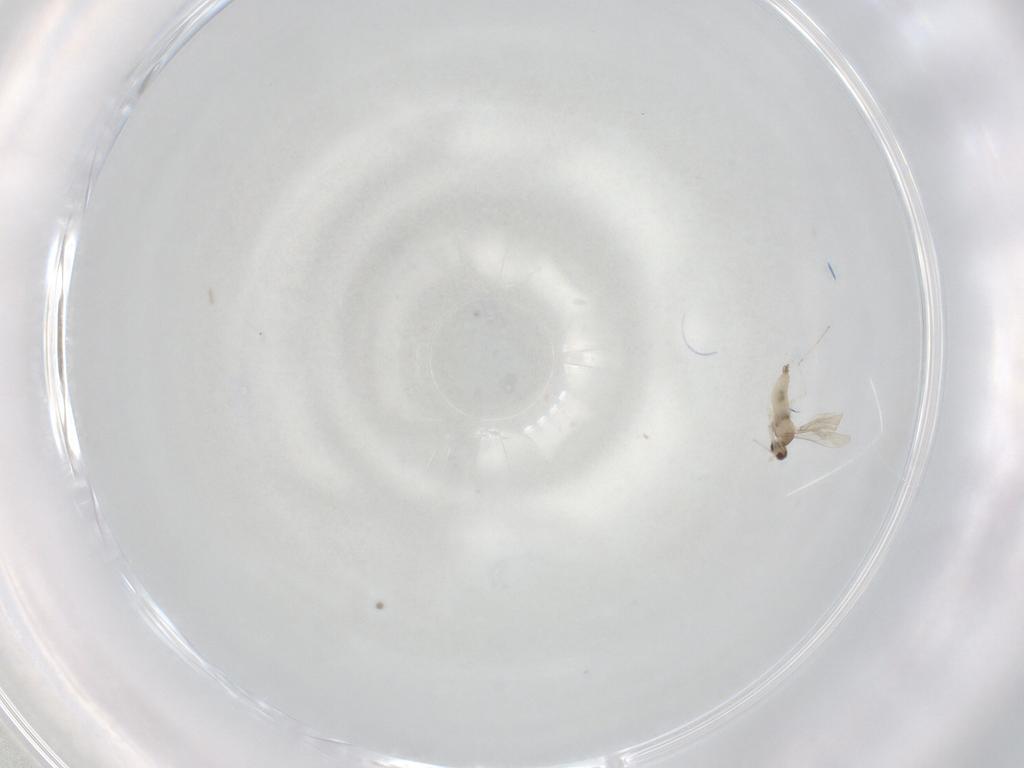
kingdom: Animalia
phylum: Arthropoda
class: Insecta
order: Diptera
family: Cecidomyiidae
